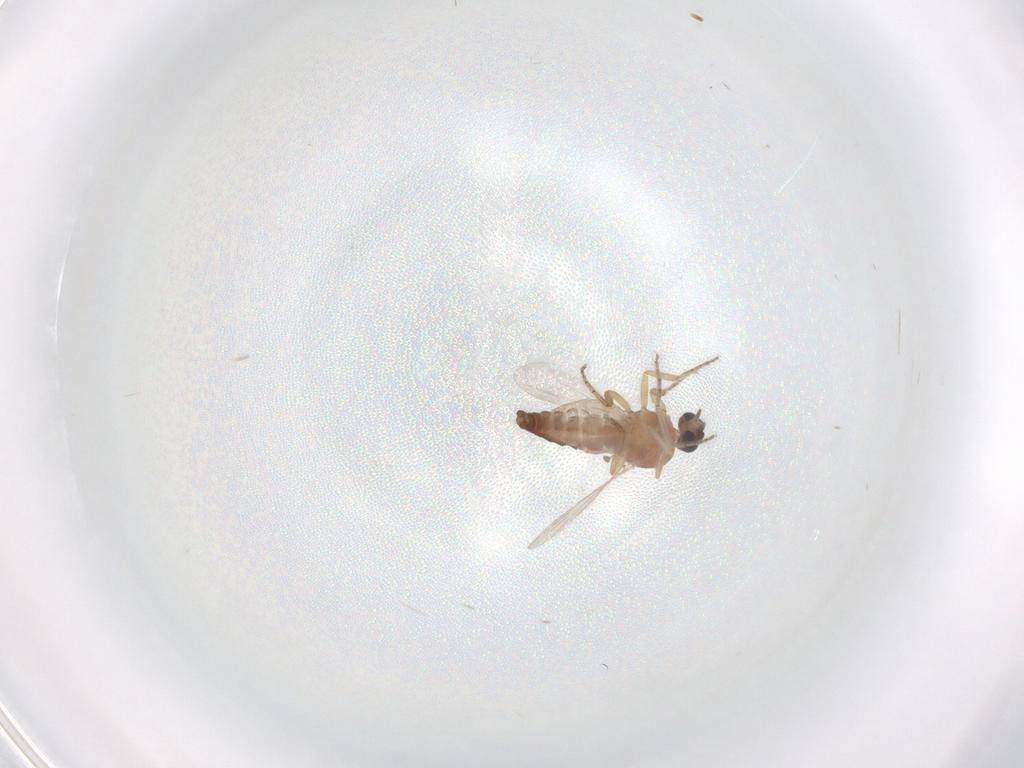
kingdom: Animalia
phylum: Arthropoda
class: Insecta
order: Diptera
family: Ceratopogonidae
